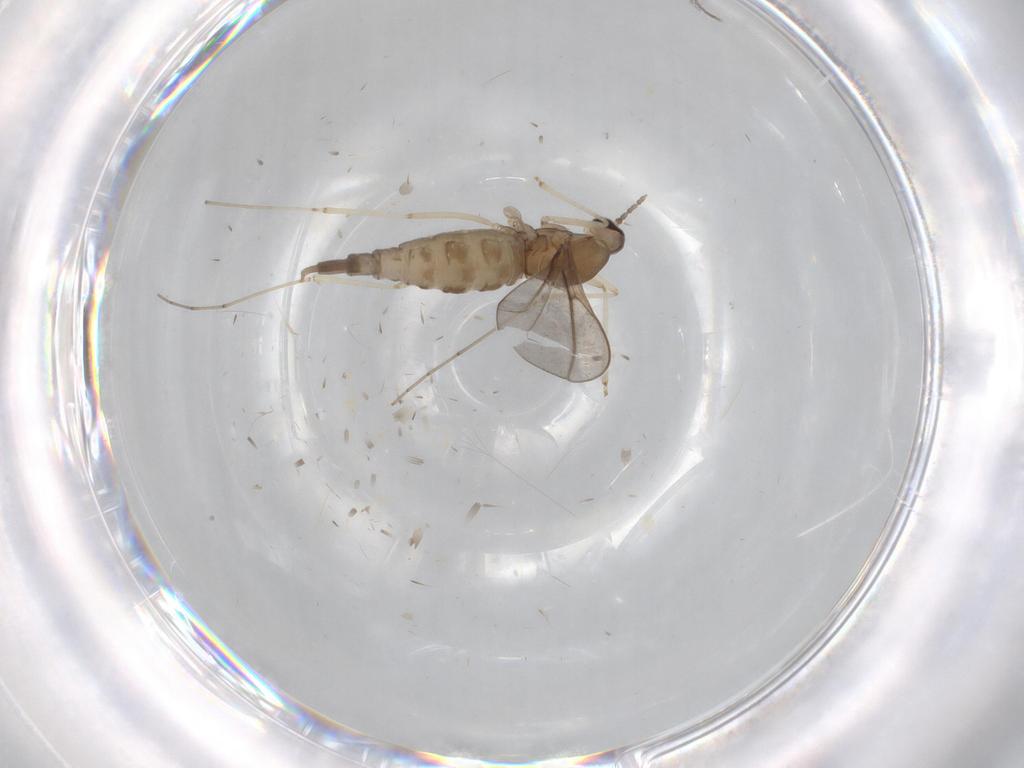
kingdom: Animalia
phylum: Arthropoda
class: Insecta
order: Diptera
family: Cecidomyiidae
